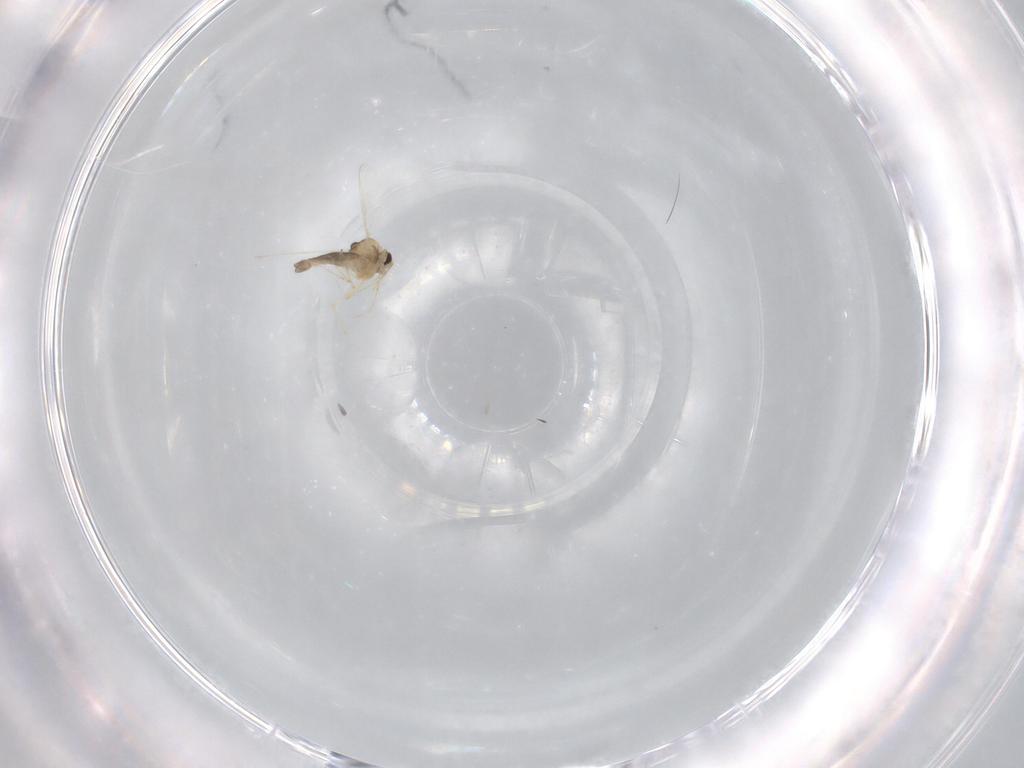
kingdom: Animalia
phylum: Arthropoda
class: Insecta
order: Diptera
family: Chironomidae
